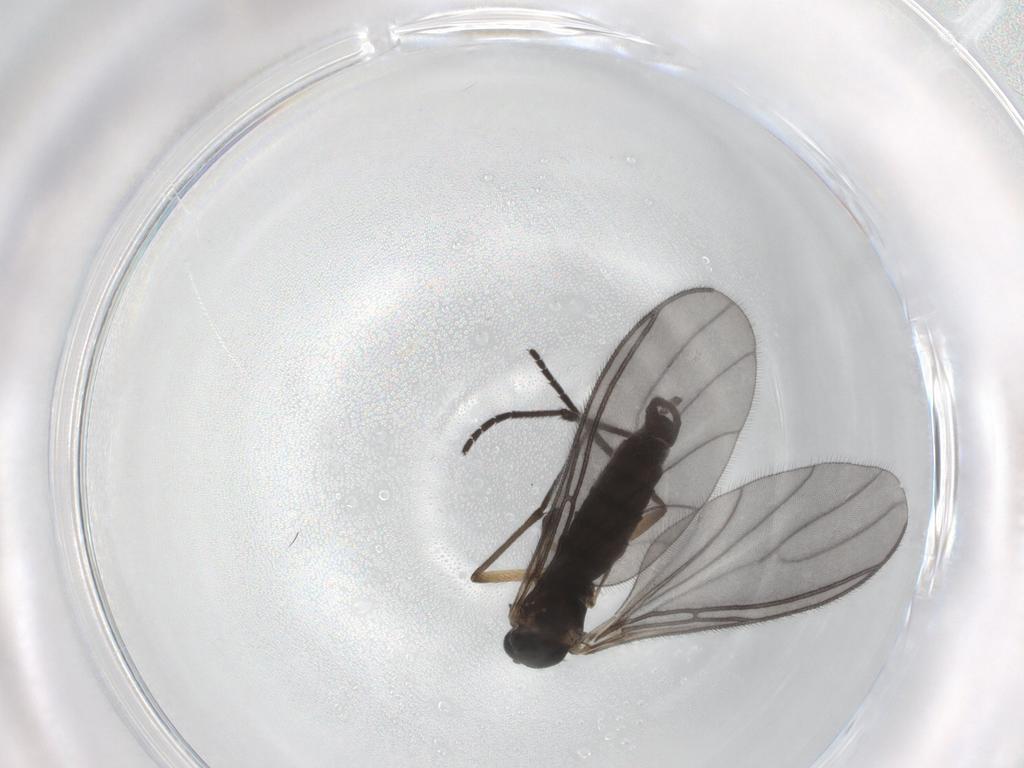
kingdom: Animalia
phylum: Arthropoda
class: Insecta
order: Diptera
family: Sciaridae
